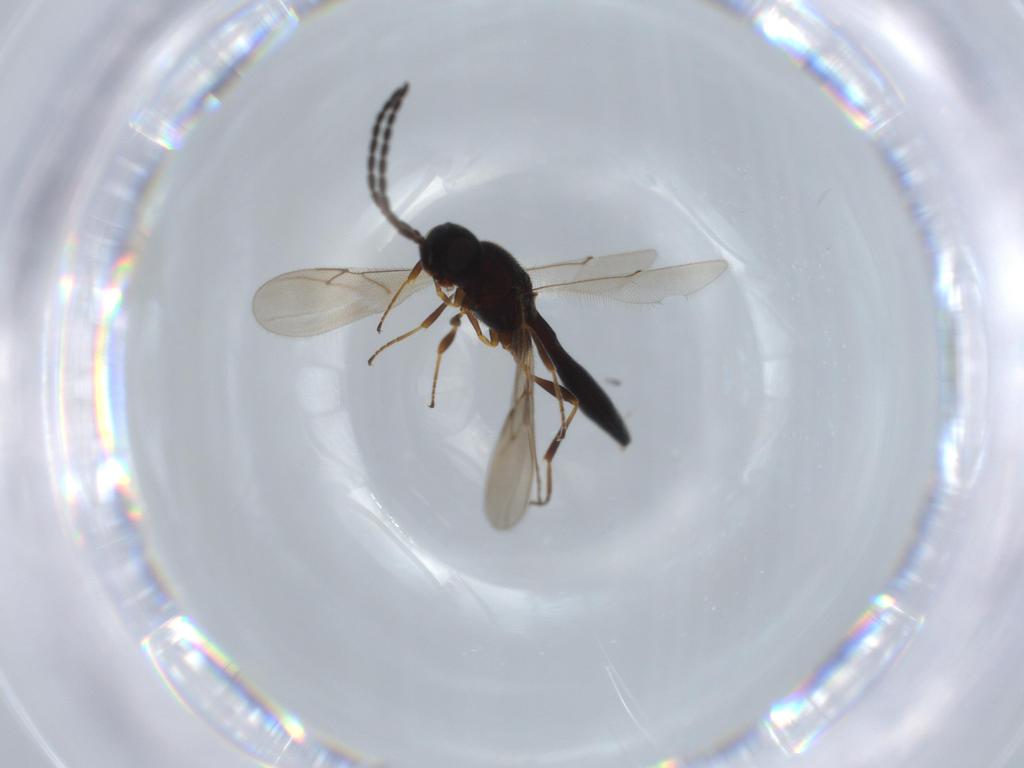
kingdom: Animalia
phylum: Arthropoda
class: Insecta
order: Hymenoptera
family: Scelionidae
